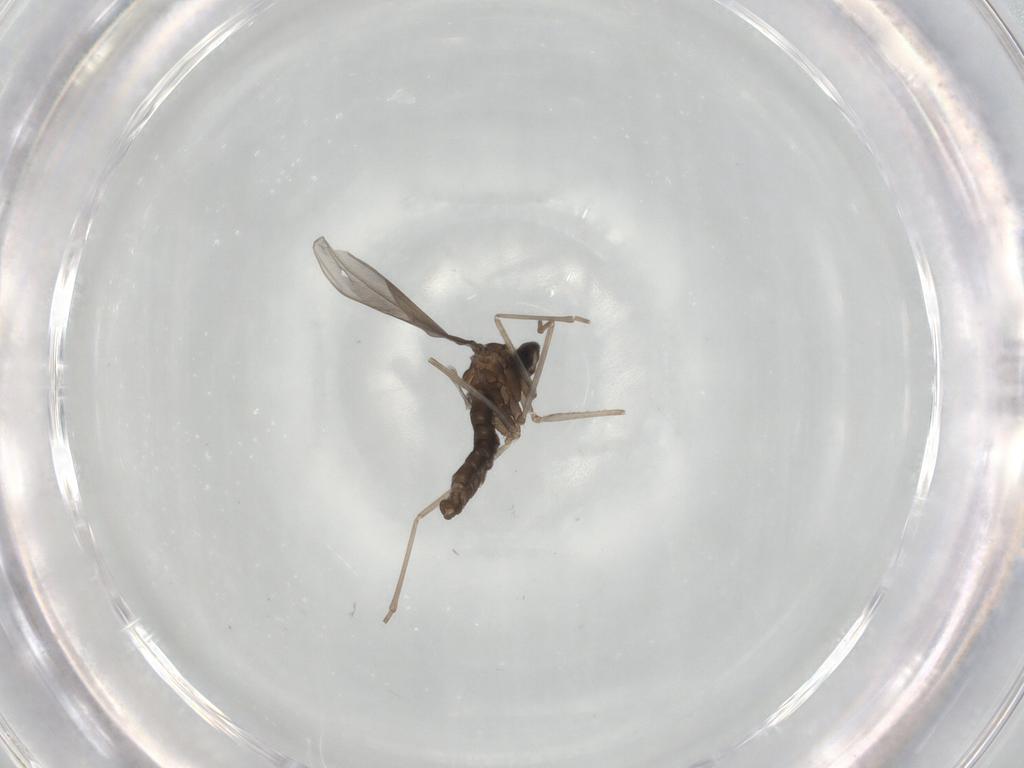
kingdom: Animalia
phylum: Arthropoda
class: Insecta
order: Diptera
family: Cecidomyiidae
